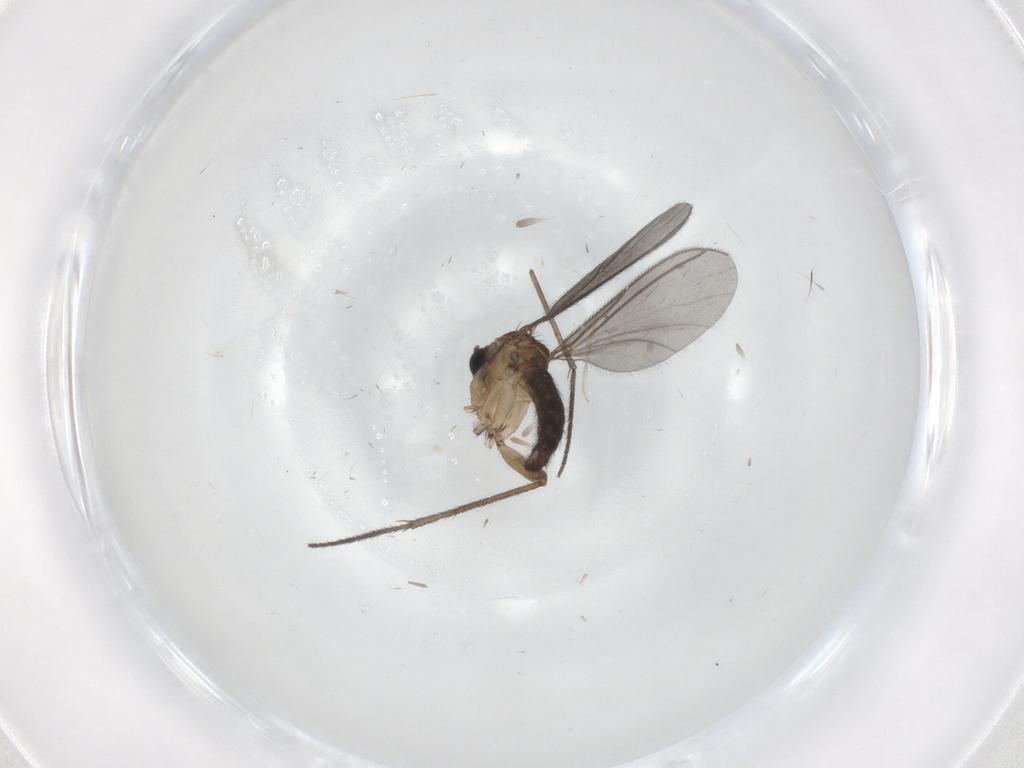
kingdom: Animalia
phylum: Arthropoda
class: Insecta
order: Diptera
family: Sciaridae
